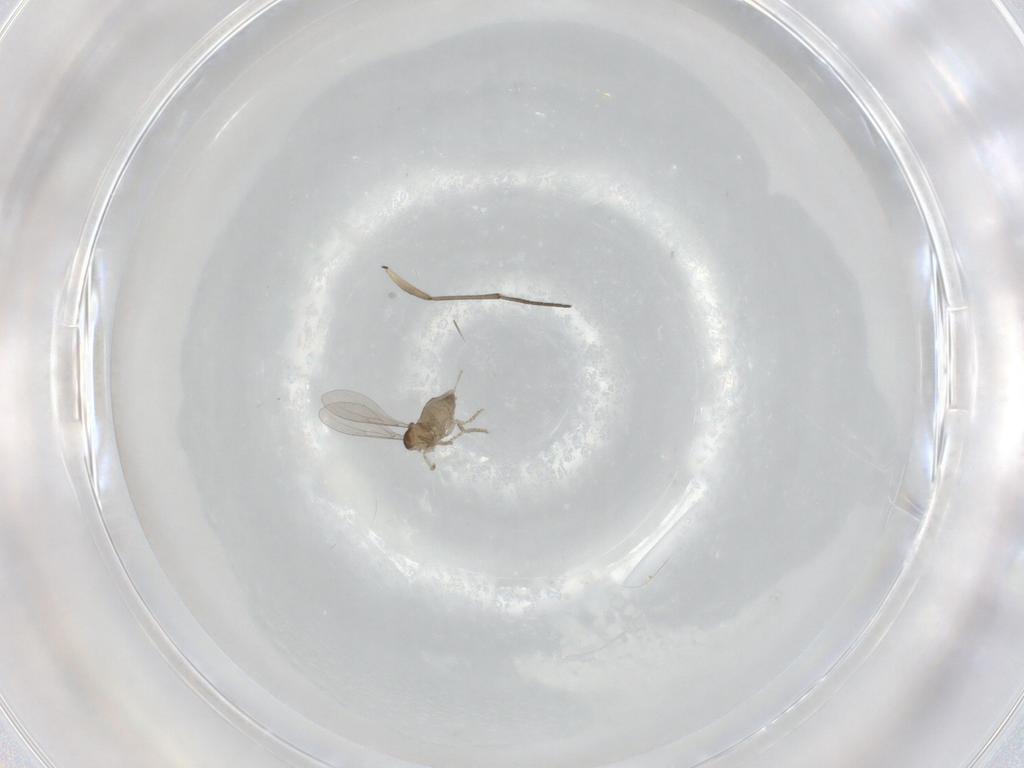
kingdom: Animalia
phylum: Arthropoda
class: Insecta
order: Diptera
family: Sciaridae
